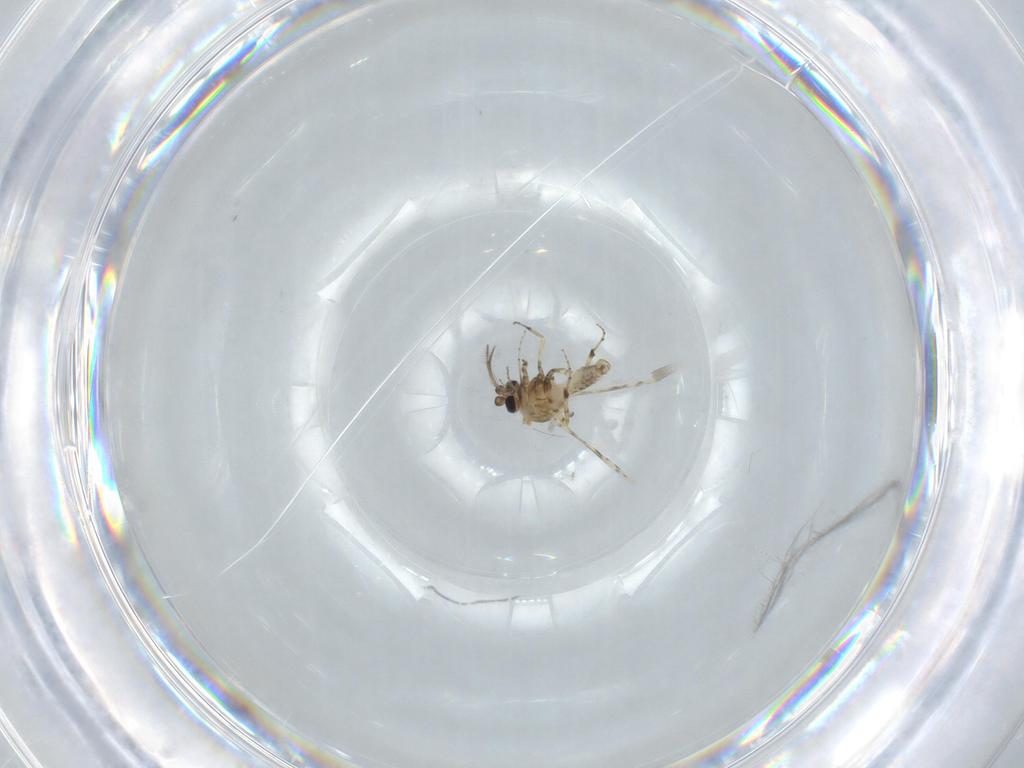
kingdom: Animalia
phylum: Arthropoda
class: Insecta
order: Diptera
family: Ceratopogonidae
